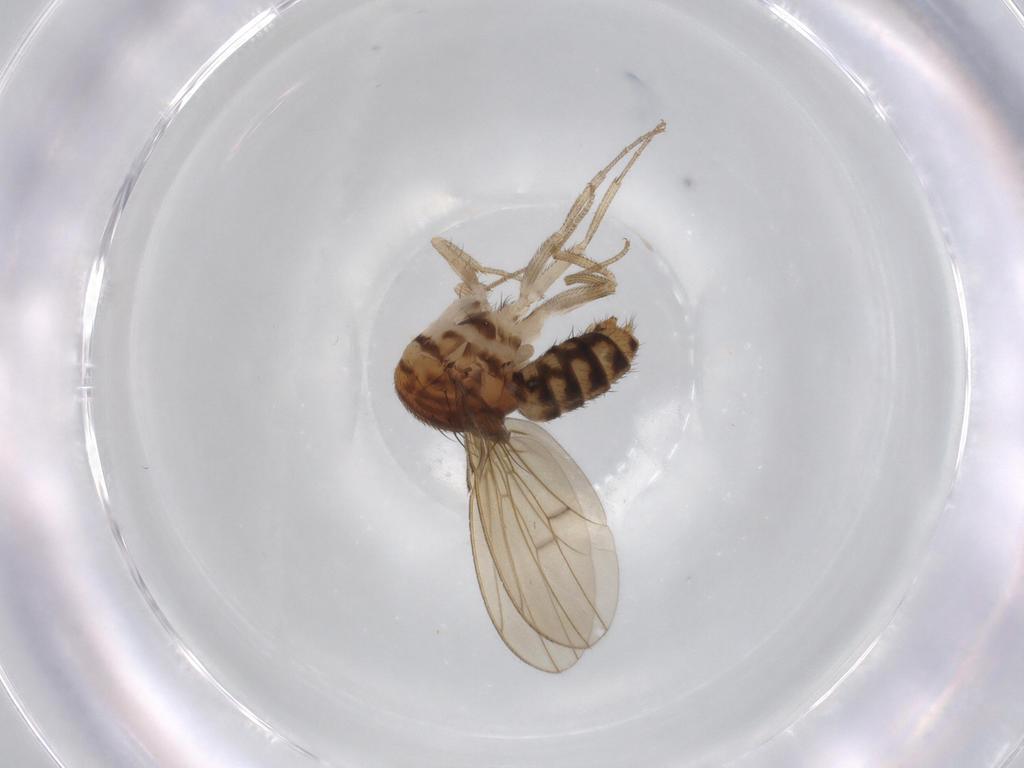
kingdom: Animalia
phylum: Arthropoda
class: Insecta
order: Diptera
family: Drosophilidae
